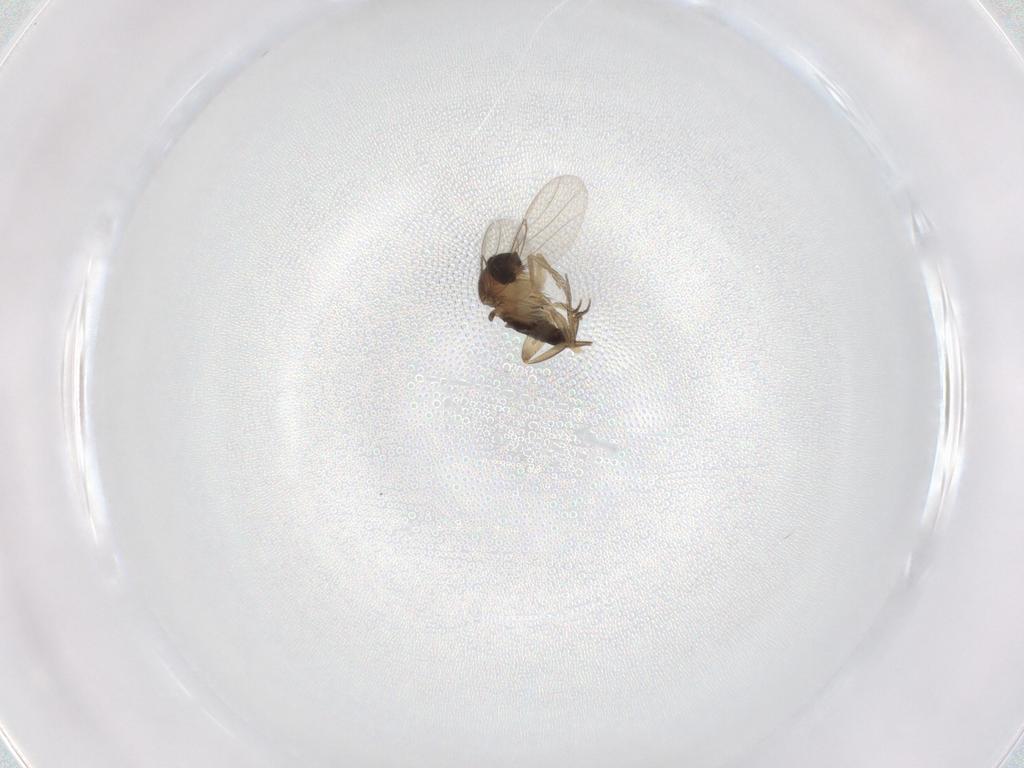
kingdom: Animalia
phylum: Arthropoda
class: Insecta
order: Diptera
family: Phoridae
